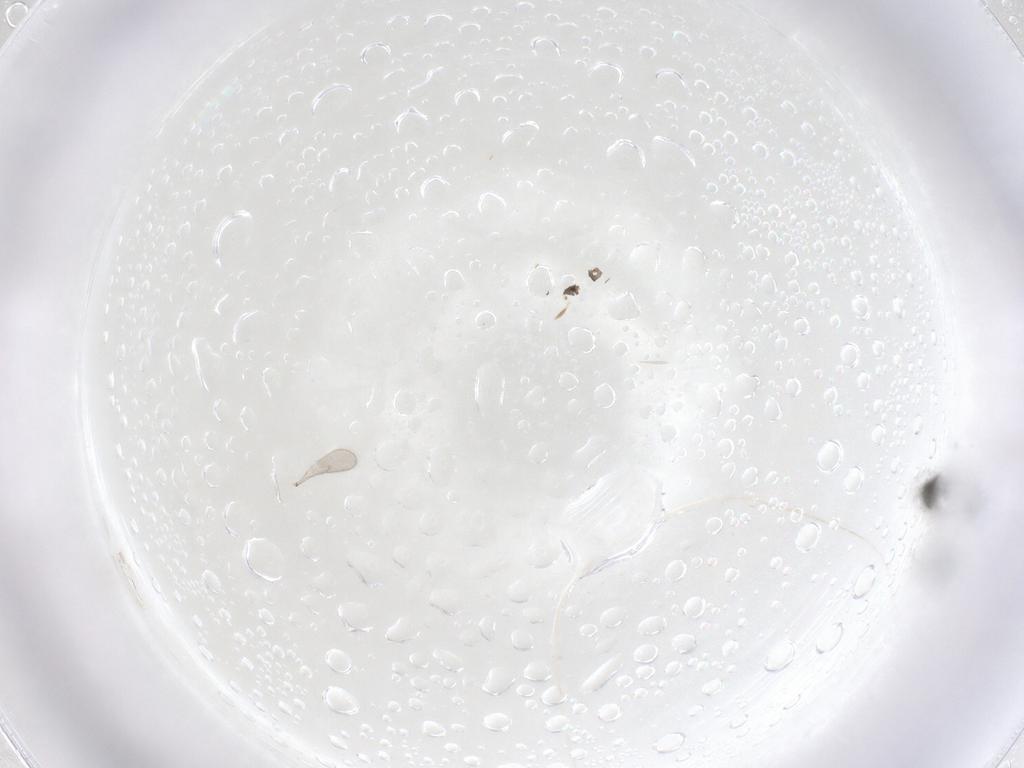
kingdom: Animalia
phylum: Arthropoda
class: Insecta
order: Hymenoptera
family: Scelionidae
